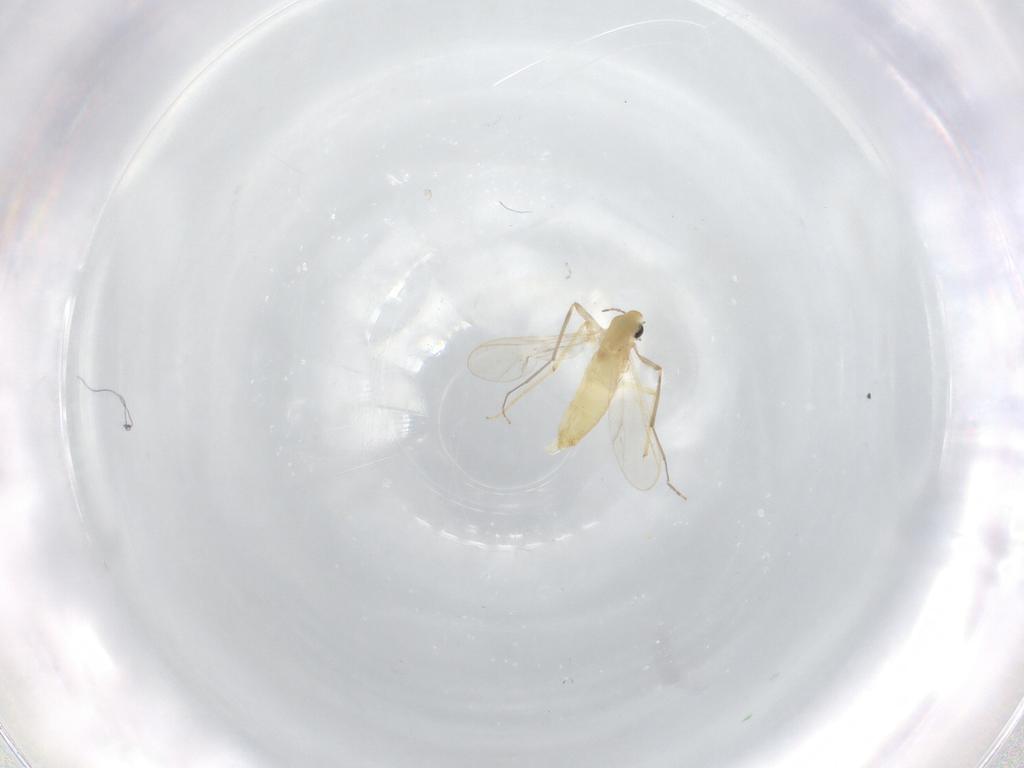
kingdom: Animalia
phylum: Arthropoda
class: Insecta
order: Diptera
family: Chironomidae
